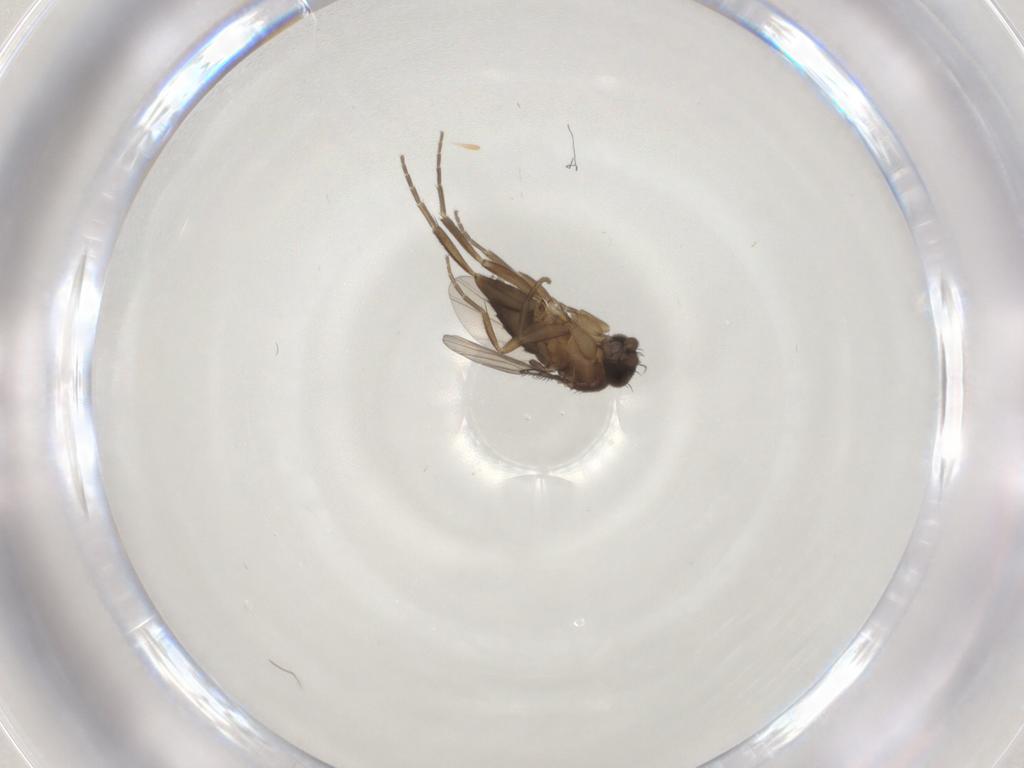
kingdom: Animalia
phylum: Arthropoda
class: Insecta
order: Diptera
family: Phoridae
